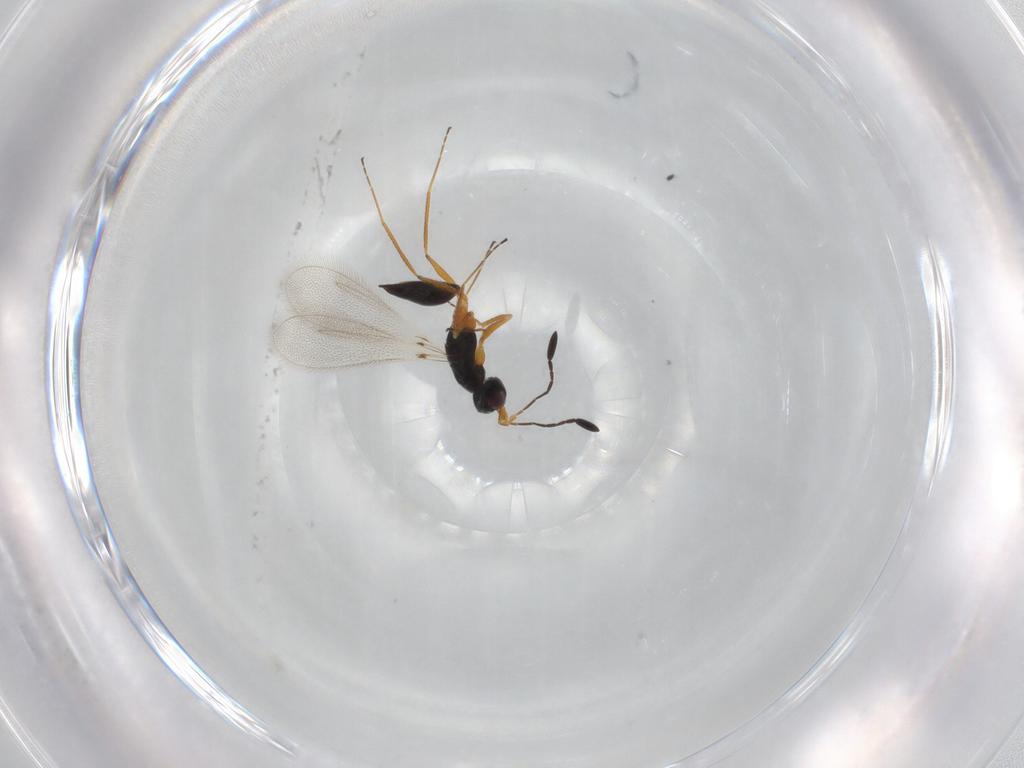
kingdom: Animalia
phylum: Arthropoda
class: Insecta
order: Hymenoptera
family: Mymaridae
